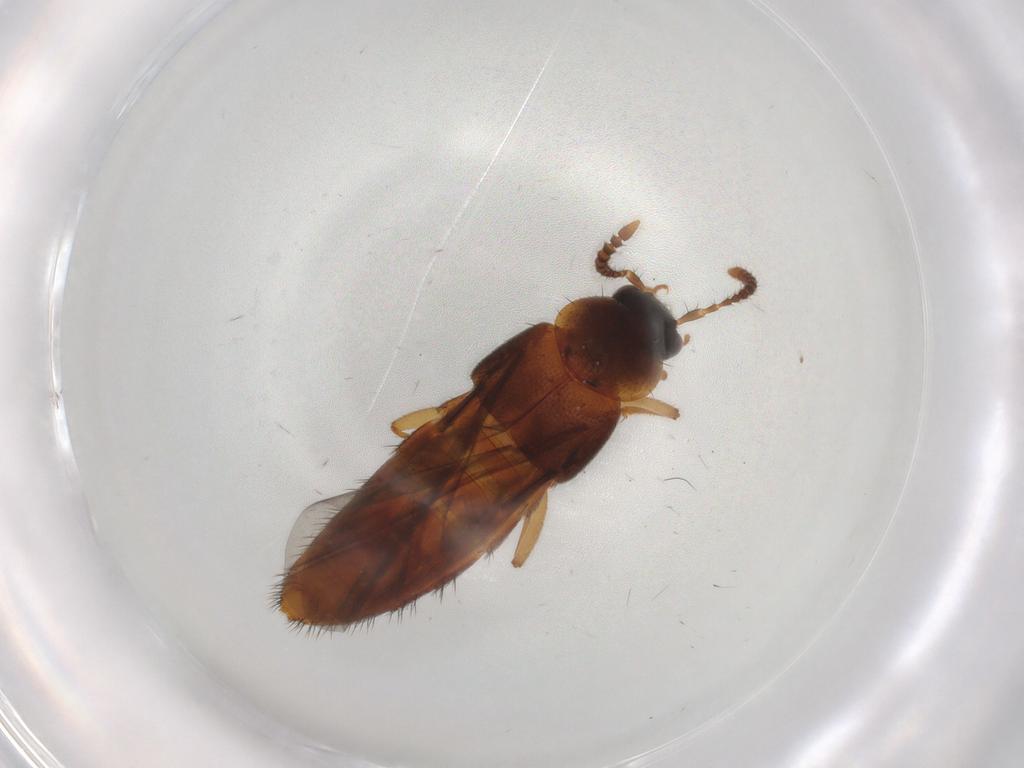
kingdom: Animalia
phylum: Arthropoda
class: Insecta
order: Coleoptera
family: Staphylinidae
